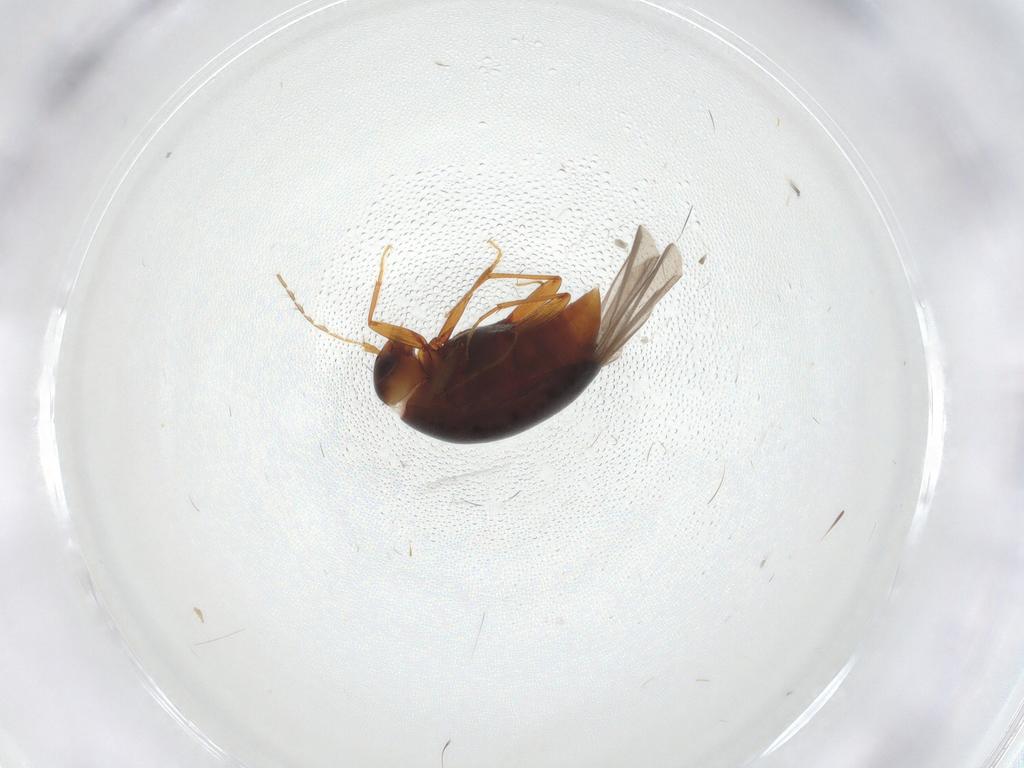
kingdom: Animalia
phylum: Arthropoda
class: Insecta
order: Coleoptera
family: Staphylinidae
